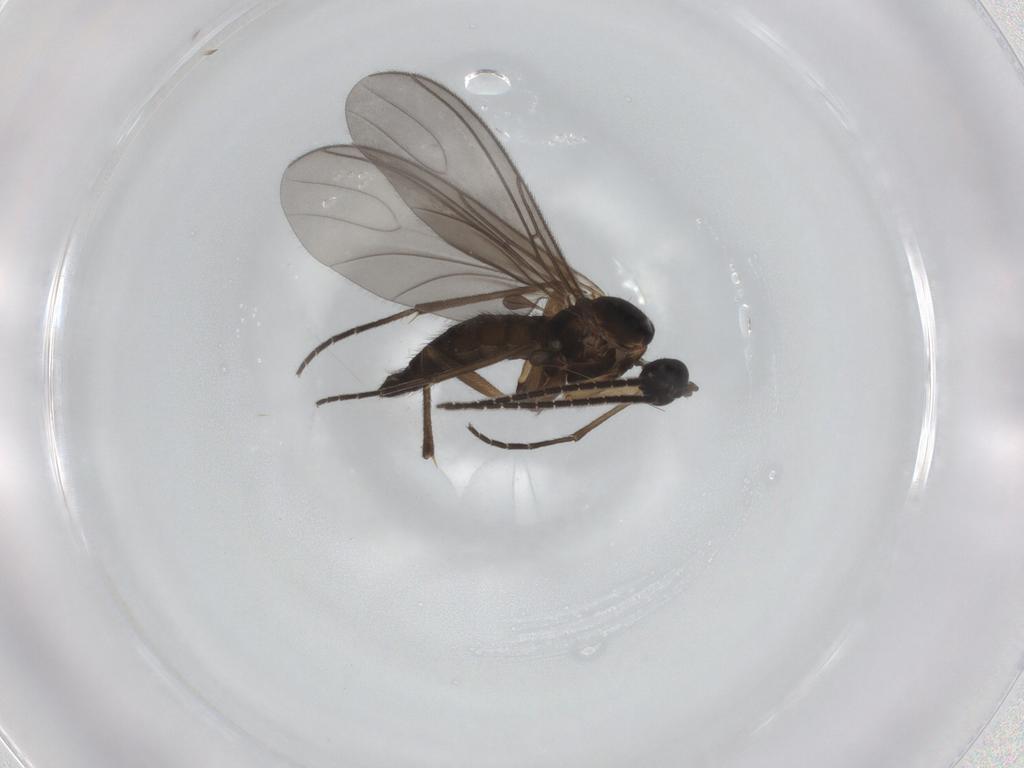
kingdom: Animalia
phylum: Arthropoda
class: Insecta
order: Diptera
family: Sciaridae
